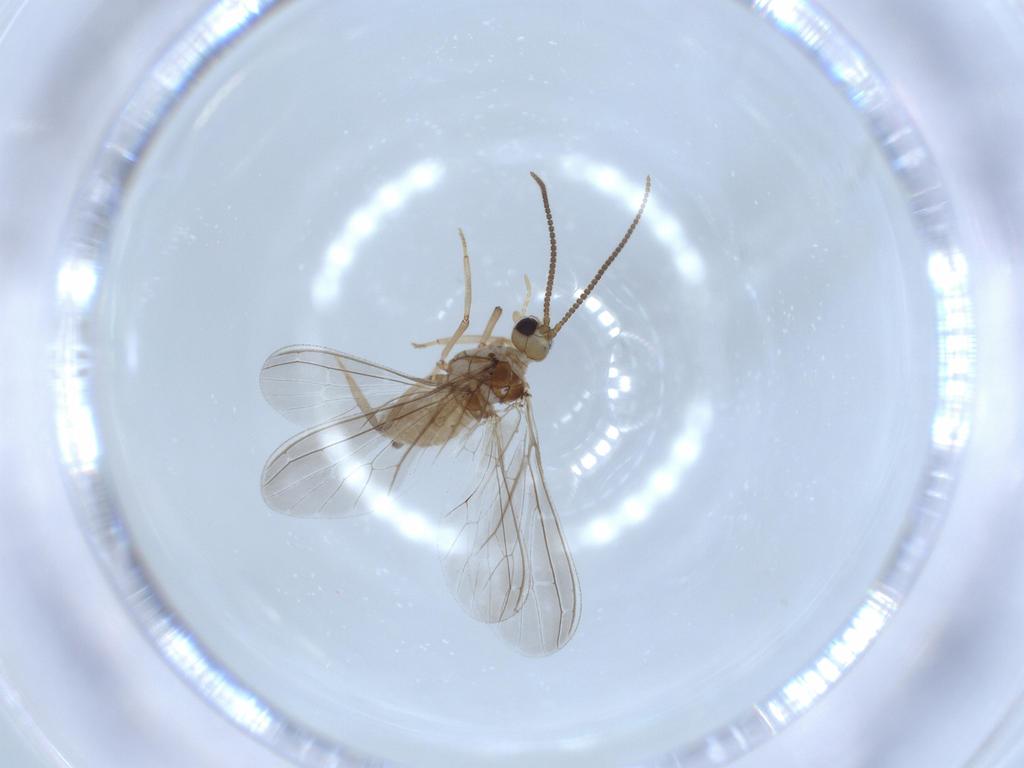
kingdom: Animalia
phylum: Arthropoda
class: Insecta
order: Neuroptera
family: Coniopterygidae
